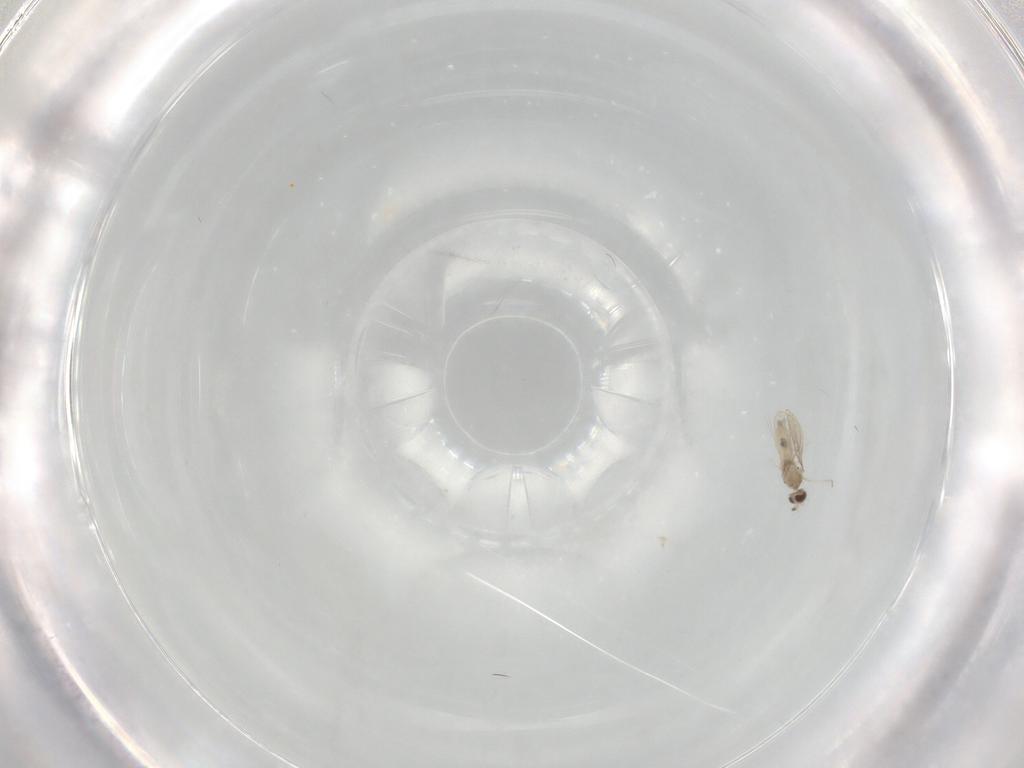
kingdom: Animalia
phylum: Arthropoda
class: Insecta
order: Diptera
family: Cecidomyiidae
